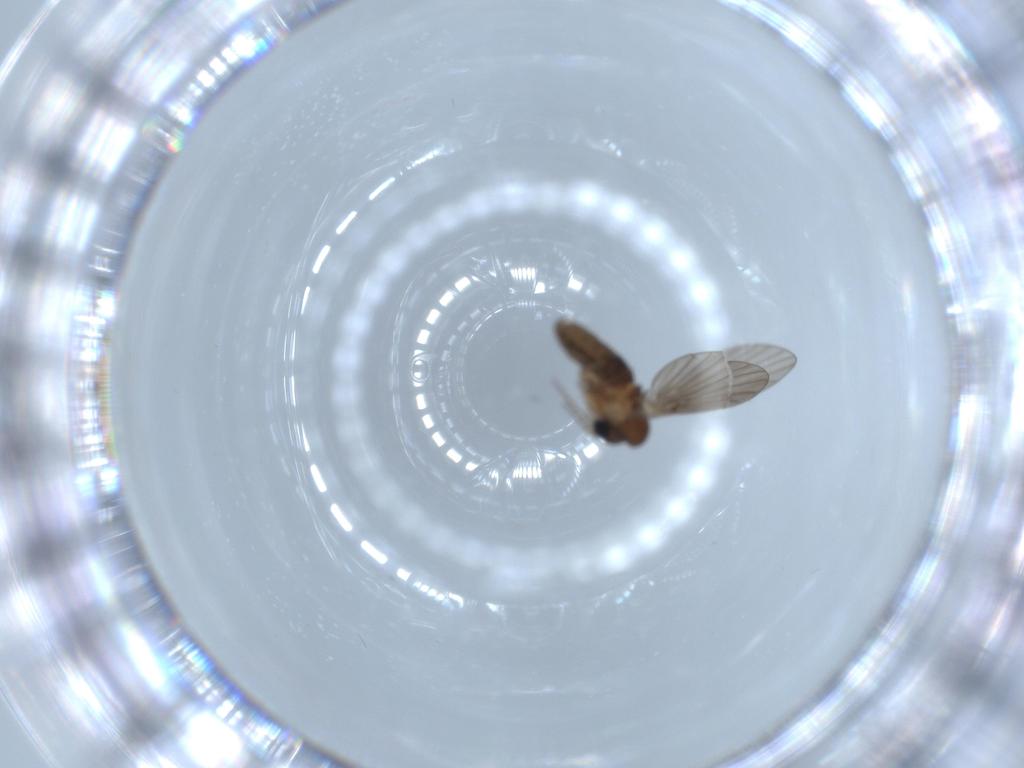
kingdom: Animalia
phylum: Arthropoda
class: Insecta
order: Diptera
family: Psychodidae
